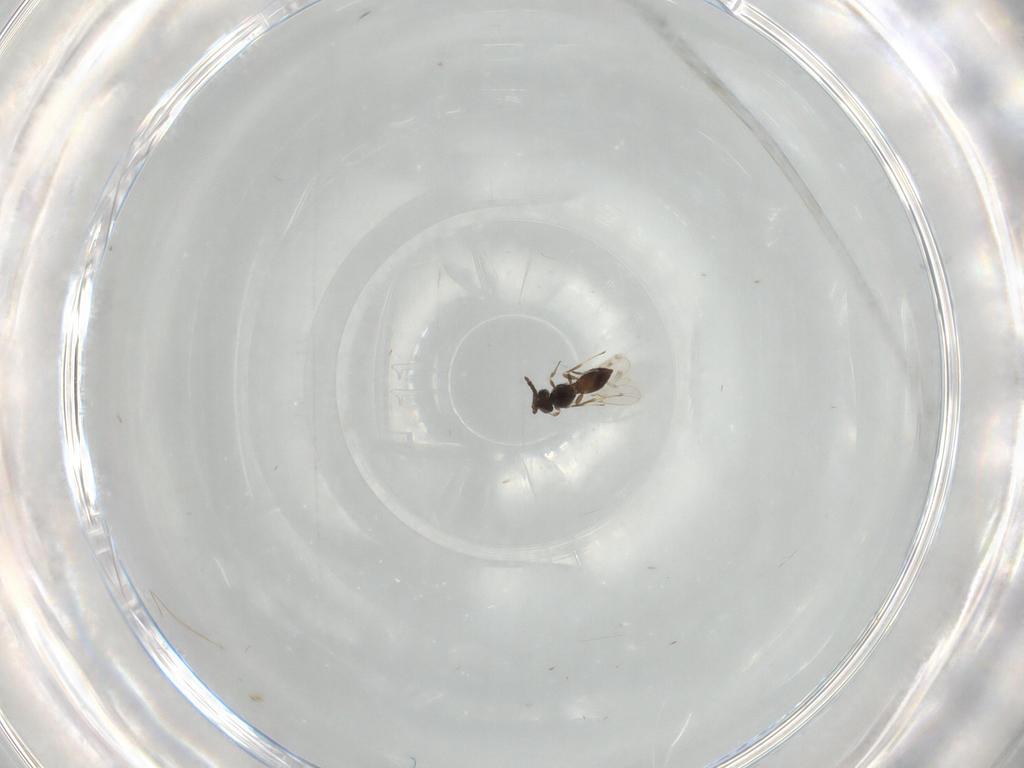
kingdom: Animalia
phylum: Arthropoda
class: Insecta
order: Hymenoptera
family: Scelionidae
